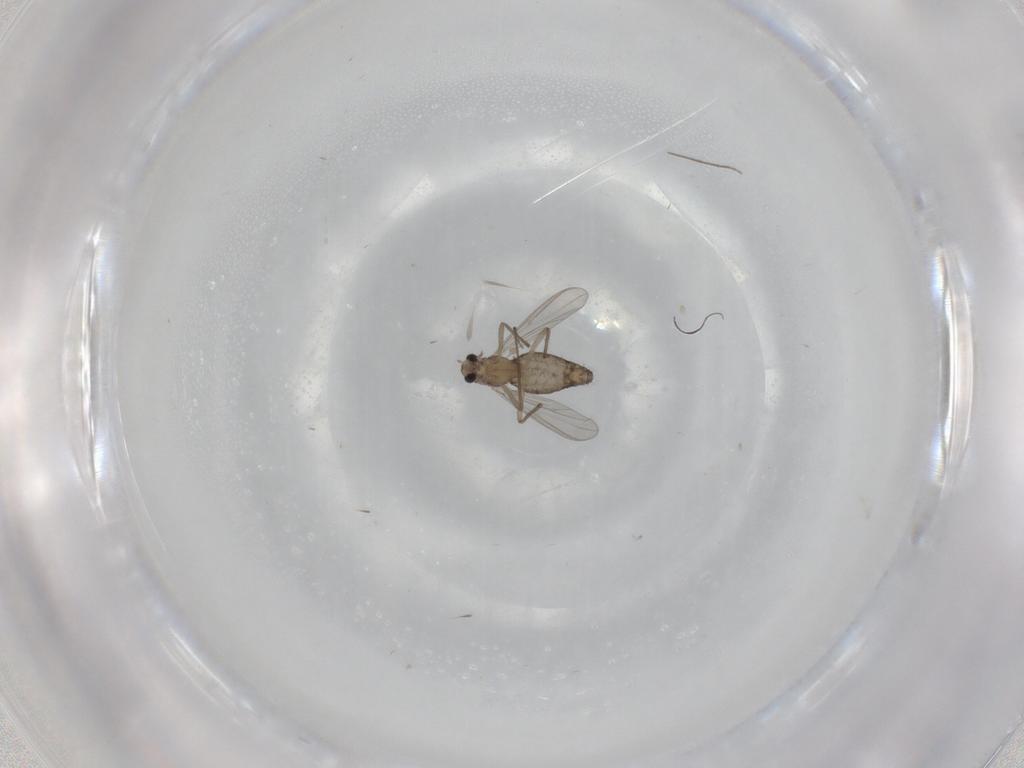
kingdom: Animalia
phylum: Arthropoda
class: Insecta
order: Diptera
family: Chironomidae
